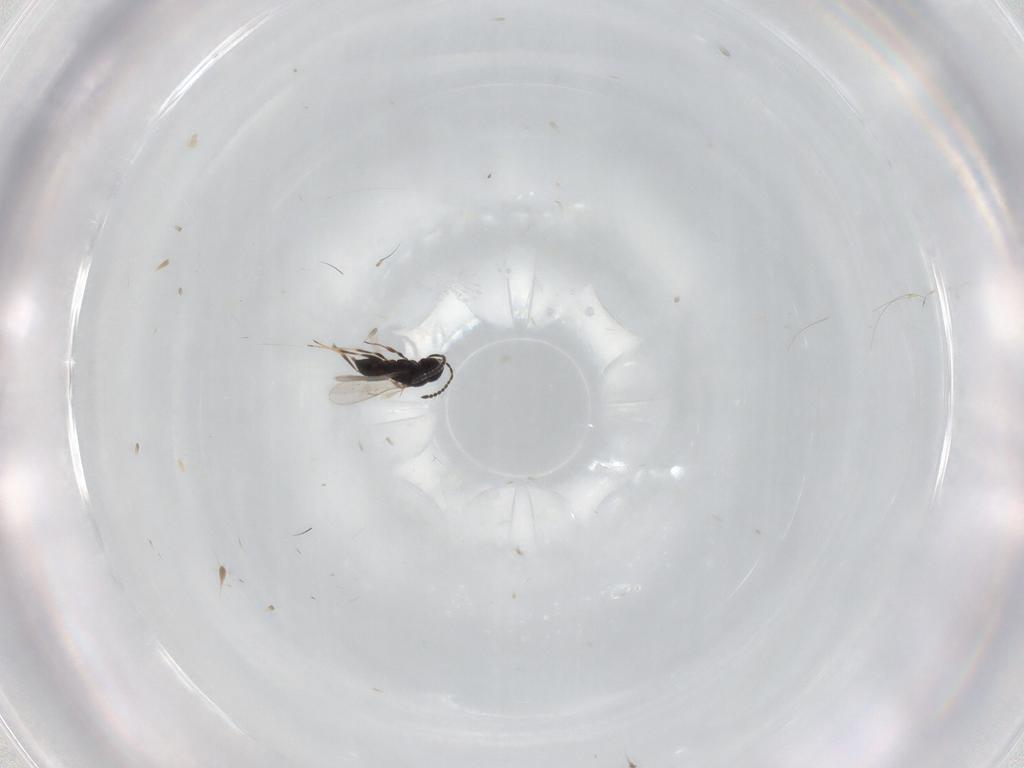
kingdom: Animalia
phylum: Arthropoda
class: Insecta
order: Hymenoptera
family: Scelionidae
